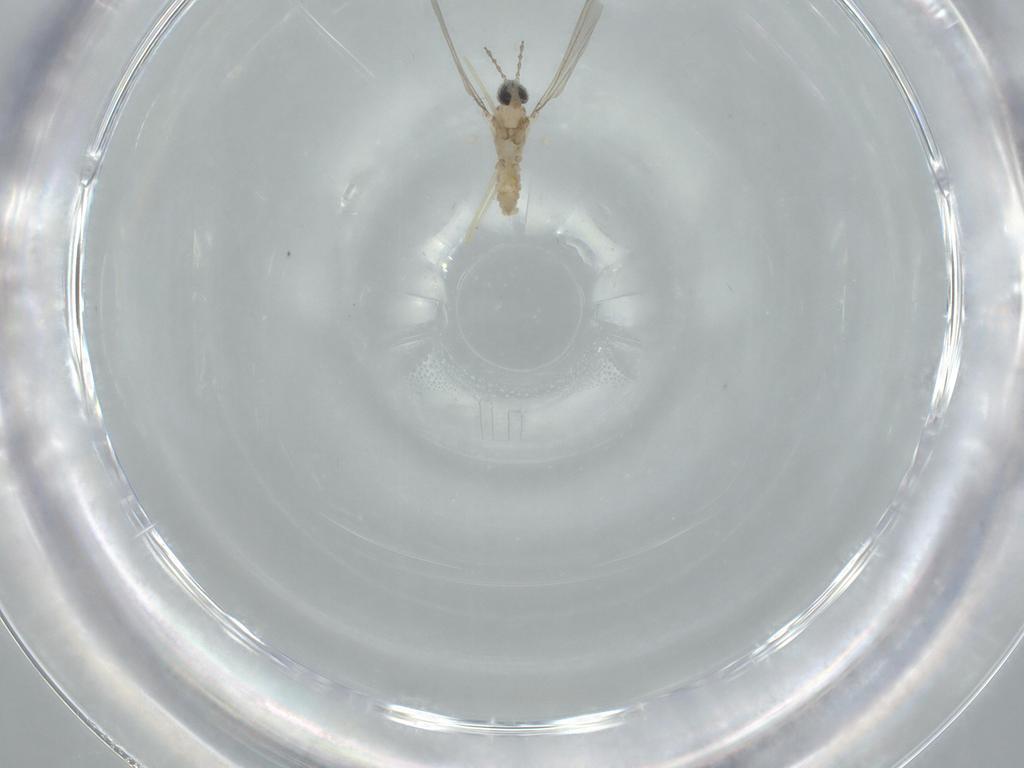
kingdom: Animalia
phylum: Arthropoda
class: Insecta
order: Diptera
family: Cecidomyiidae
